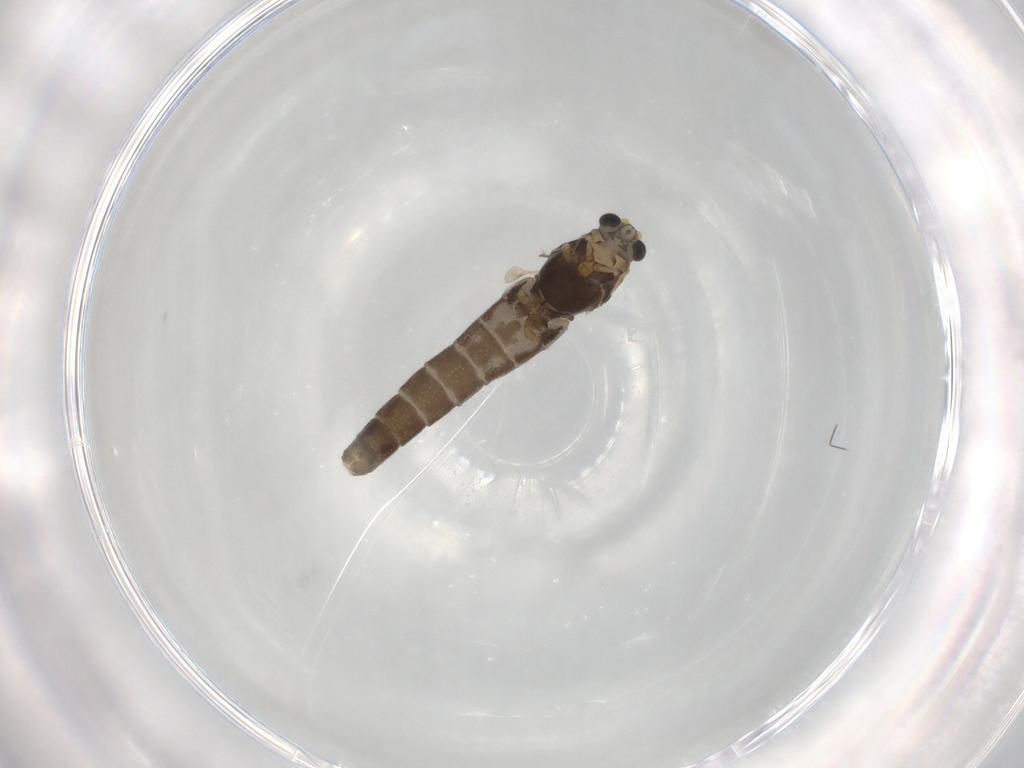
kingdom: Animalia
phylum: Arthropoda
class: Insecta
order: Diptera
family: Chironomidae
